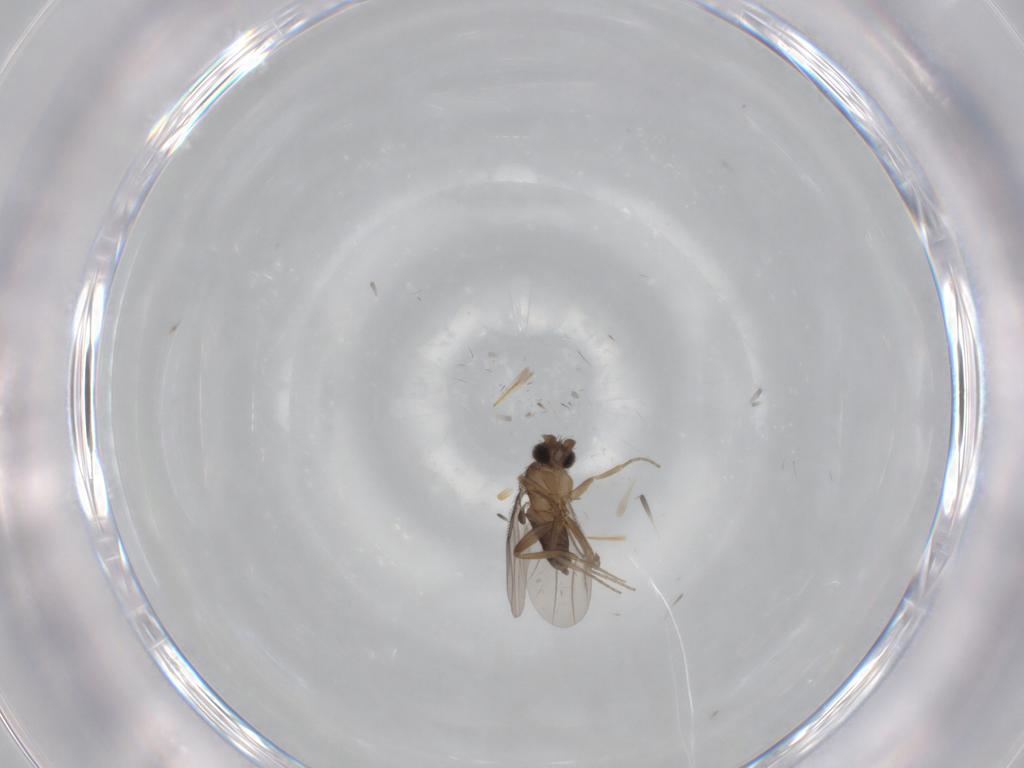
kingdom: Animalia
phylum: Arthropoda
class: Insecta
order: Diptera
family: Phoridae
